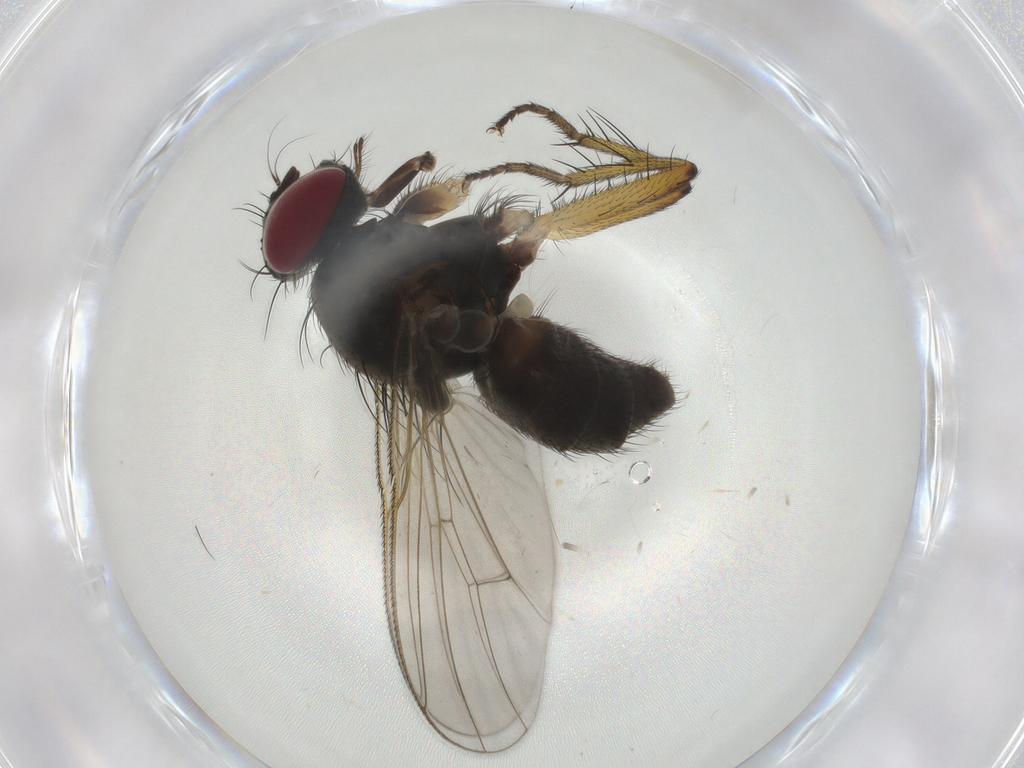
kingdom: Animalia
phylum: Arthropoda
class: Insecta
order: Diptera
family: Muscidae
